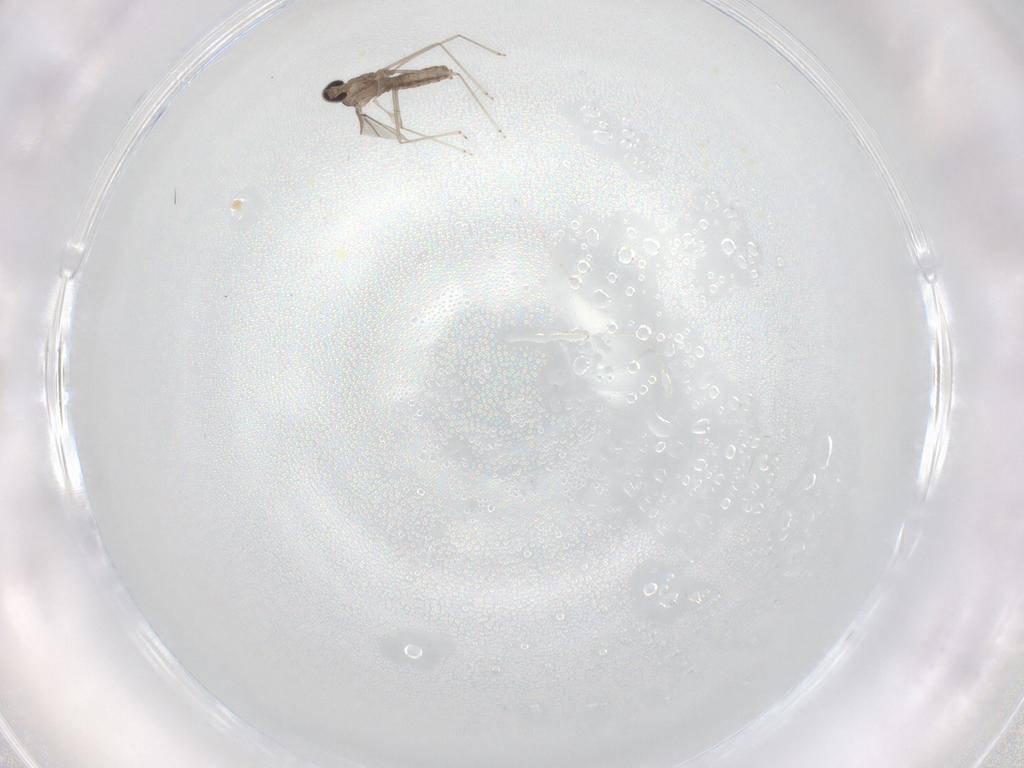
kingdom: Animalia
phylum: Arthropoda
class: Insecta
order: Diptera
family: Cecidomyiidae
